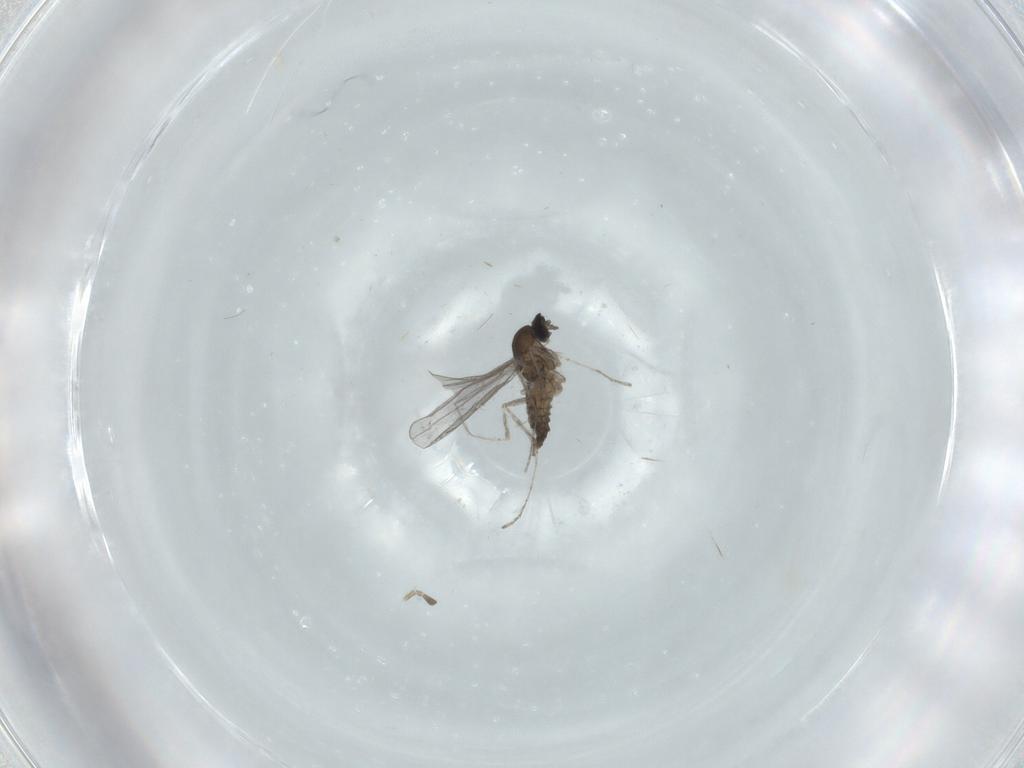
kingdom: Animalia
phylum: Arthropoda
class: Insecta
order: Diptera
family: Cecidomyiidae
